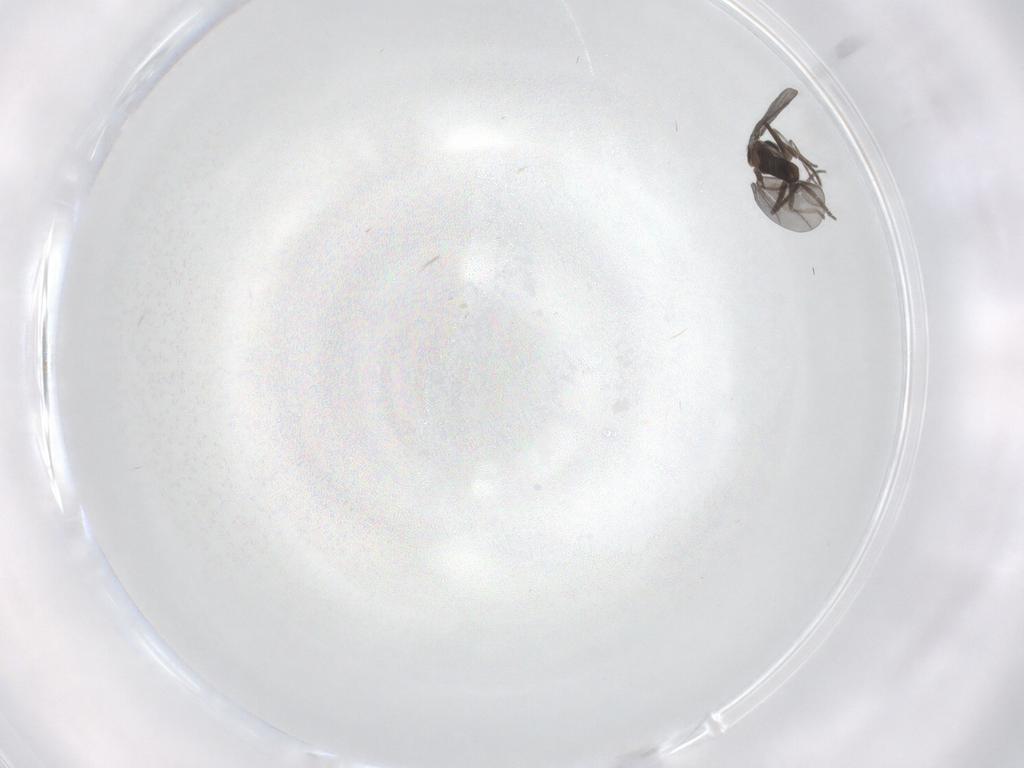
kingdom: Animalia
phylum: Arthropoda
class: Insecta
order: Diptera
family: Phoridae
